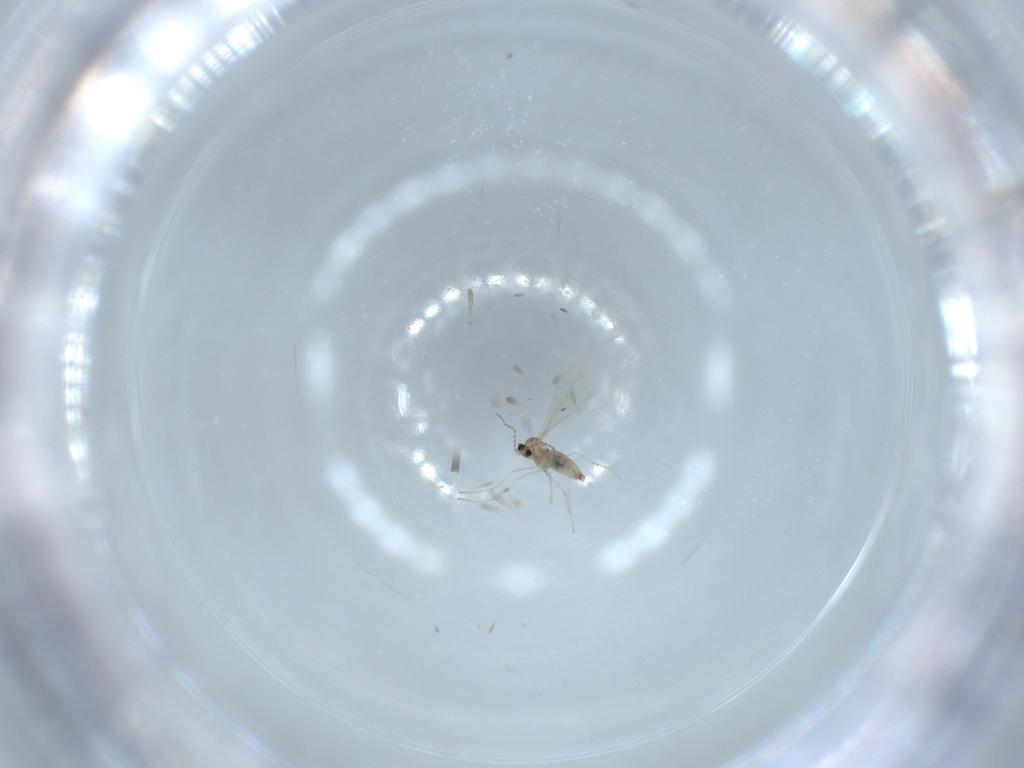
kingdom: Animalia
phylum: Arthropoda
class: Insecta
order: Diptera
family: Cecidomyiidae
